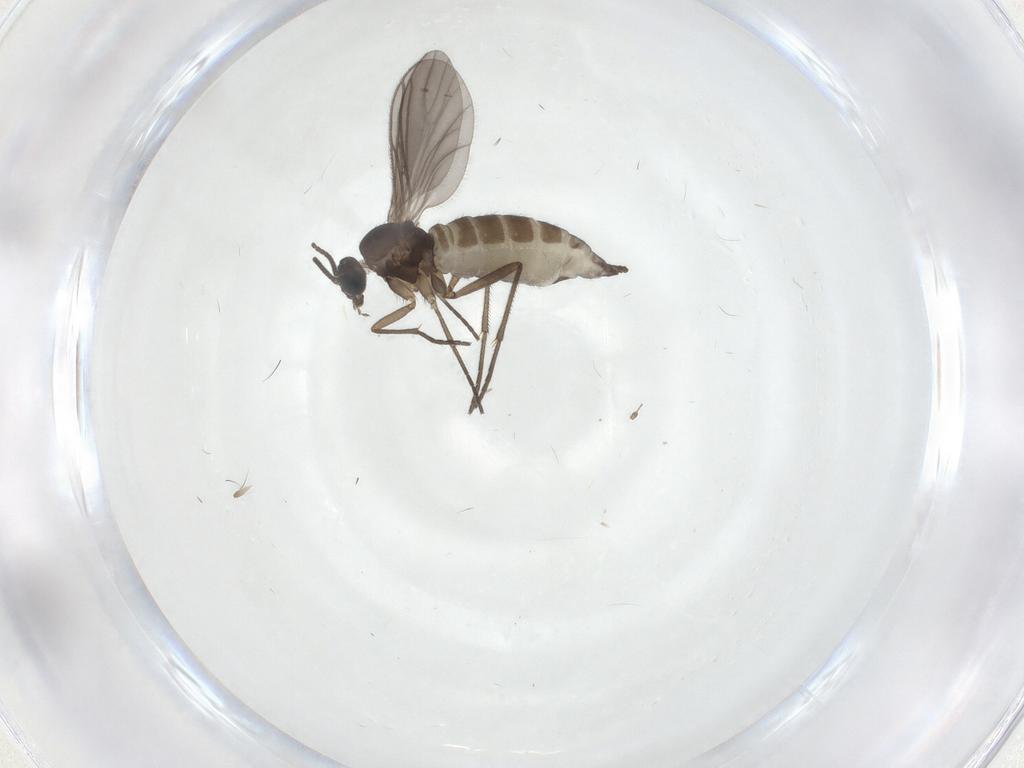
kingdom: Animalia
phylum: Arthropoda
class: Insecta
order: Diptera
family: Sciaridae
